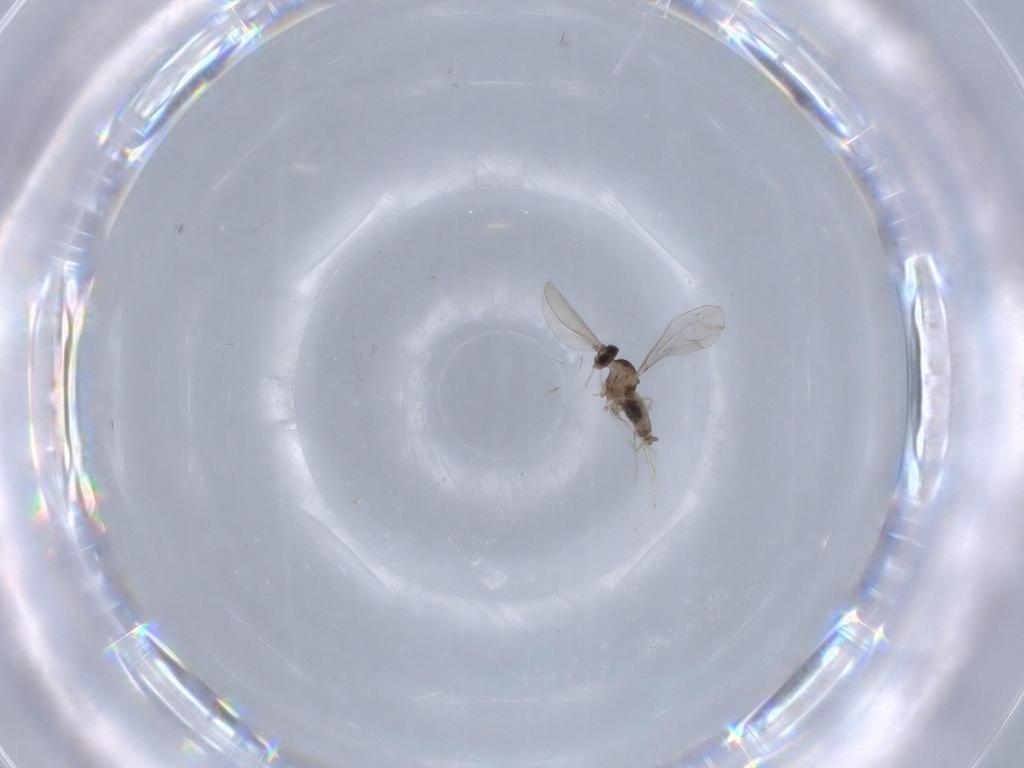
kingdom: Animalia
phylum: Arthropoda
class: Insecta
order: Diptera
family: Cecidomyiidae
